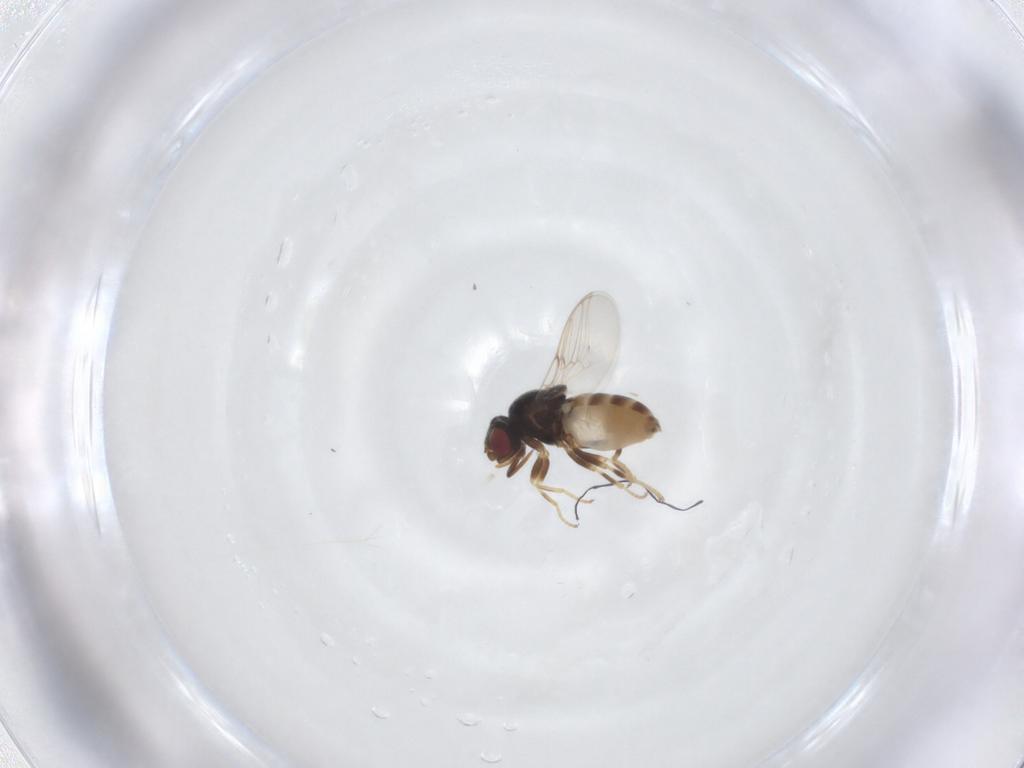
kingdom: Animalia
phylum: Arthropoda
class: Insecta
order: Diptera
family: Chloropidae
